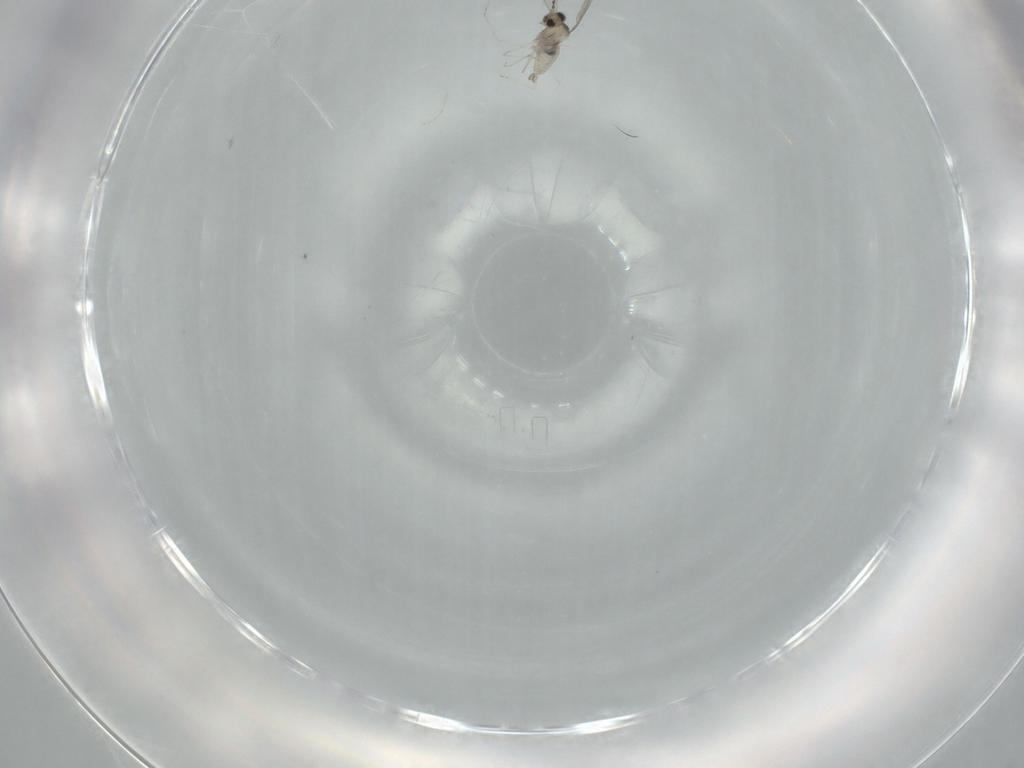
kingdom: Animalia
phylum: Arthropoda
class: Insecta
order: Diptera
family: Cecidomyiidae
